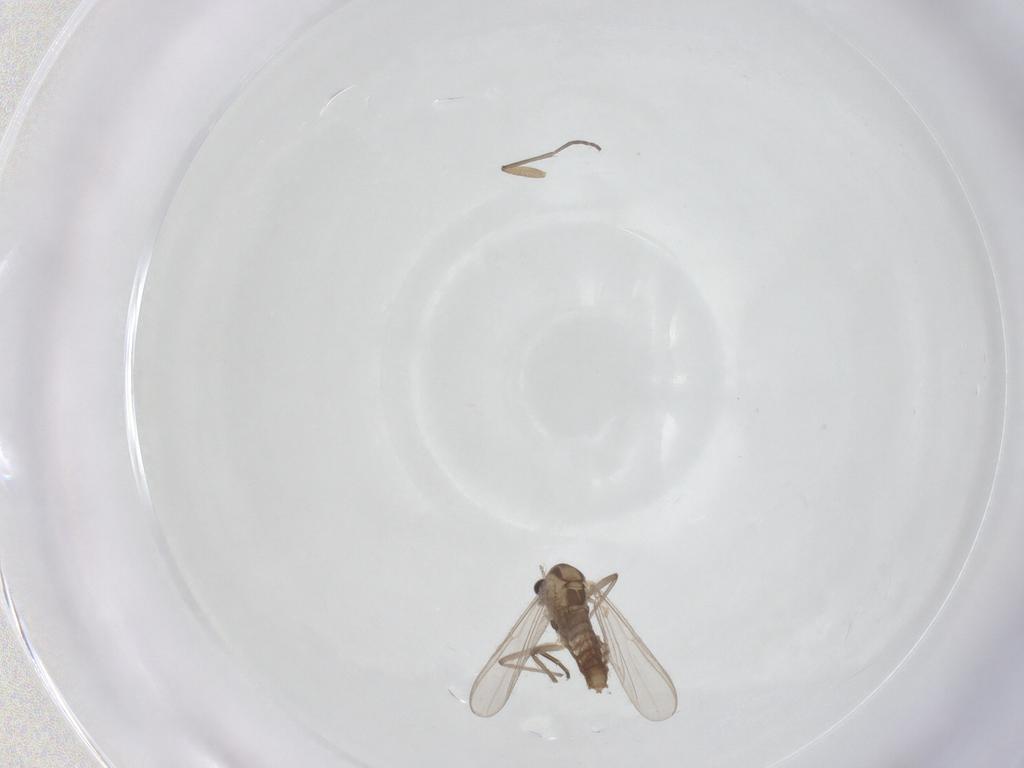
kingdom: Animalia
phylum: Arthropoda
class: Insecta
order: Diptera
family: Chironomidae
